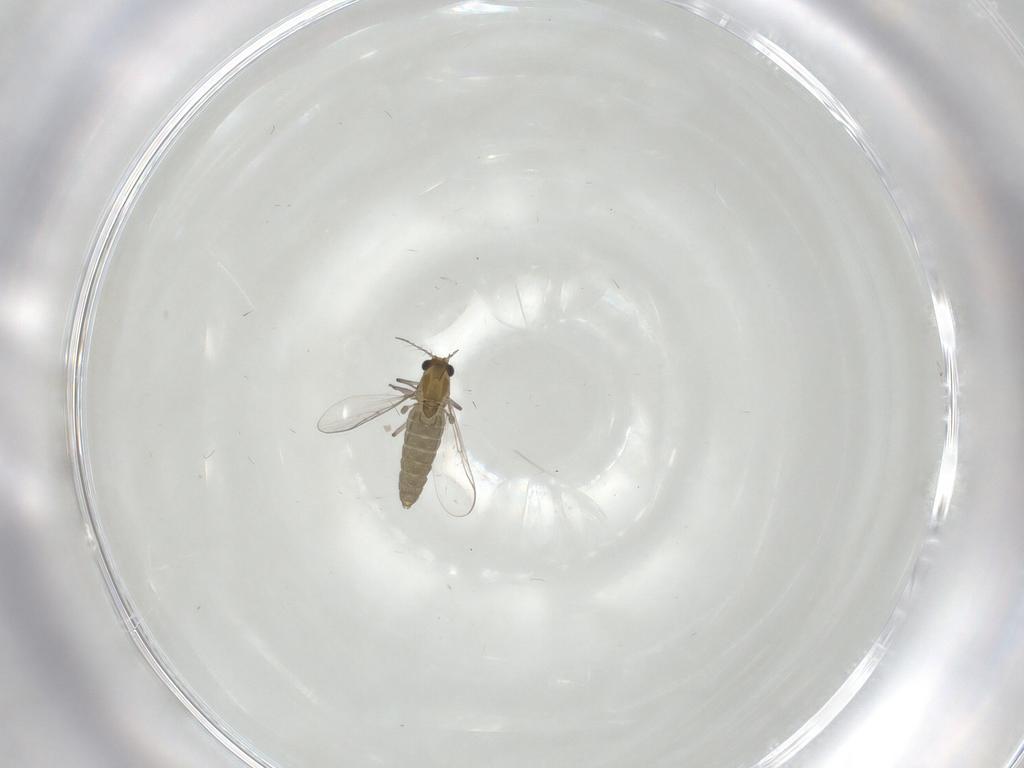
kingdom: Animalia
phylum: Arthropoda
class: Insecta
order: Diptera
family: Chironomidae
